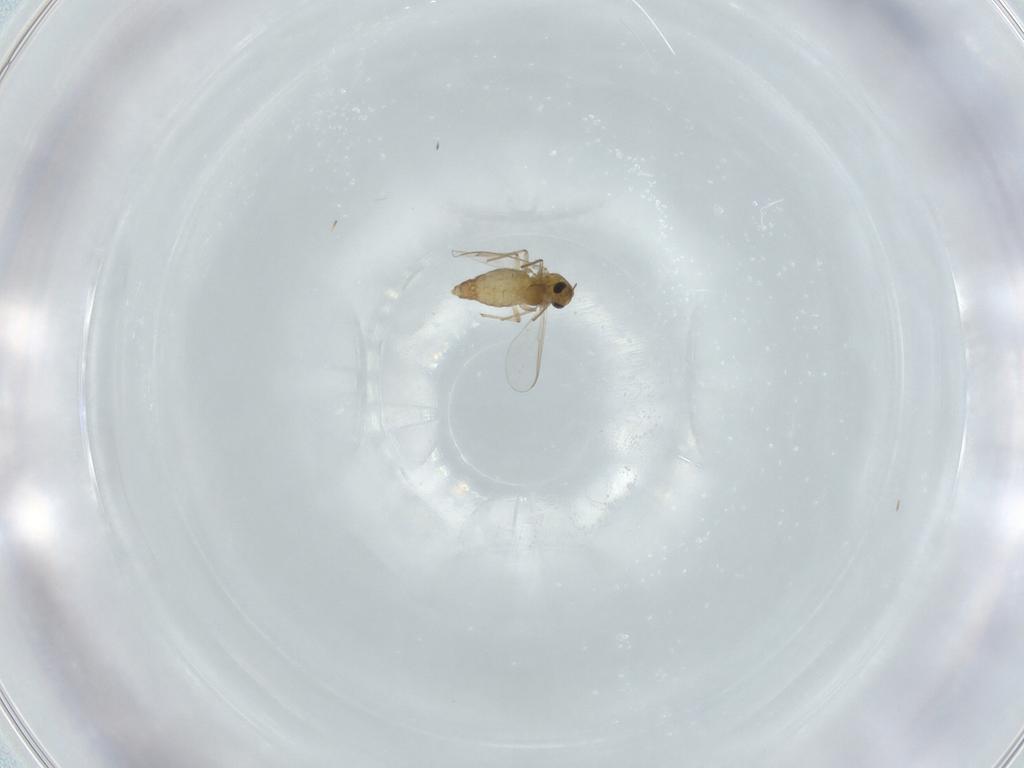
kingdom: Animalia
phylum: Arthropoda
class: Insecta
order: Diptera
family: Chironomidae
